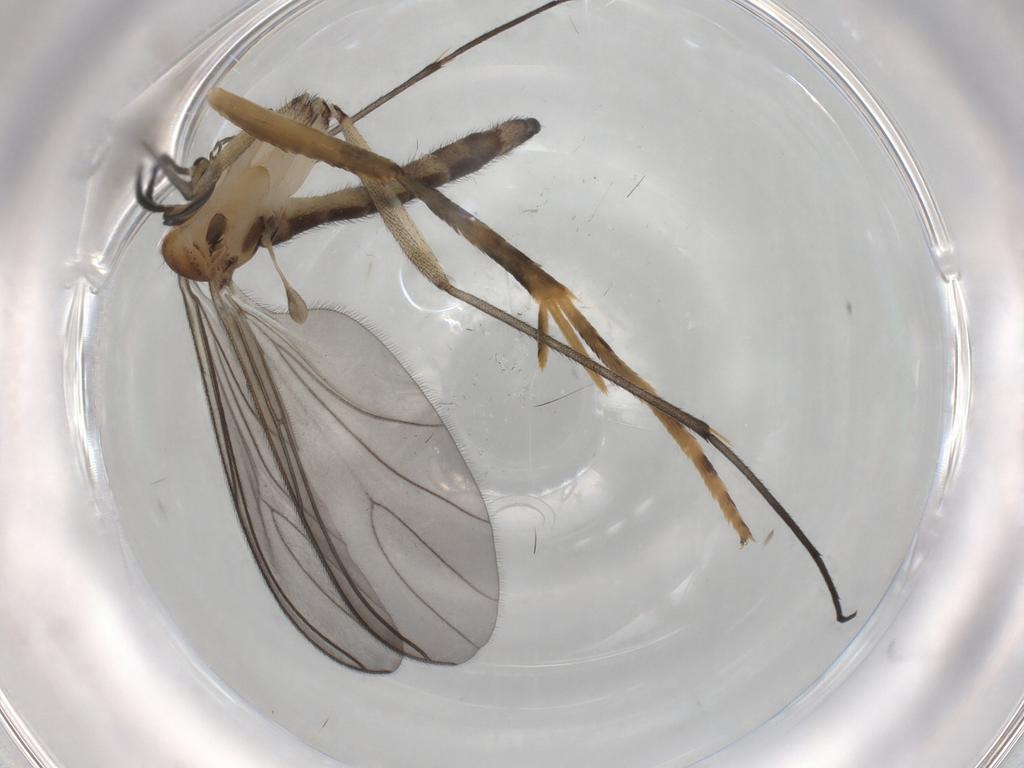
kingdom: Animalia
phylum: Arthropoda
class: Insecta
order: Diptera
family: Sciaridae
